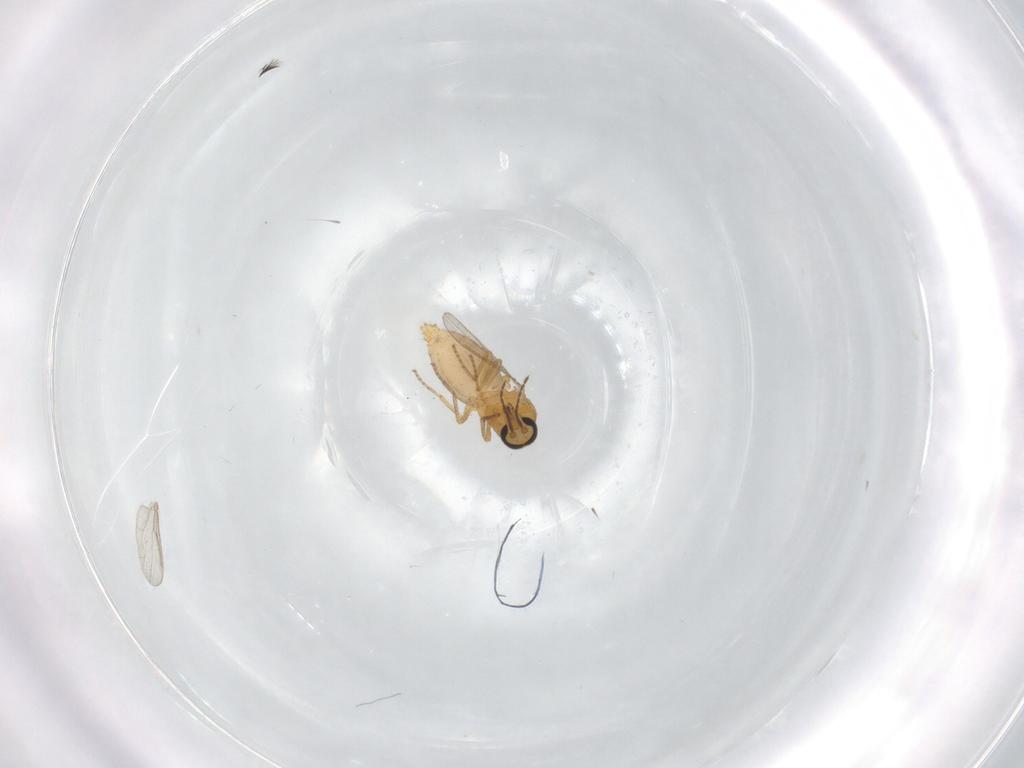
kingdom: Animalia
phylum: Arthropoda
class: Insecta
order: Diptera
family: Ceratopogonidae
